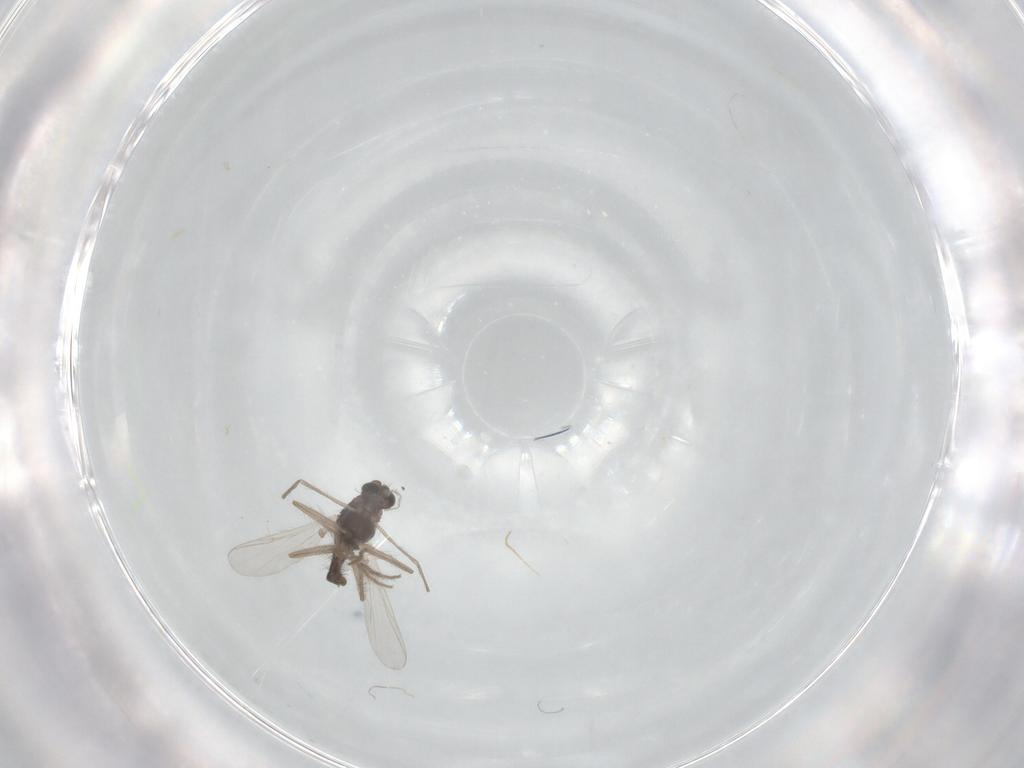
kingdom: Animalia
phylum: Arthropoda
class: Insecta
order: Diptera
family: Chironomidae
